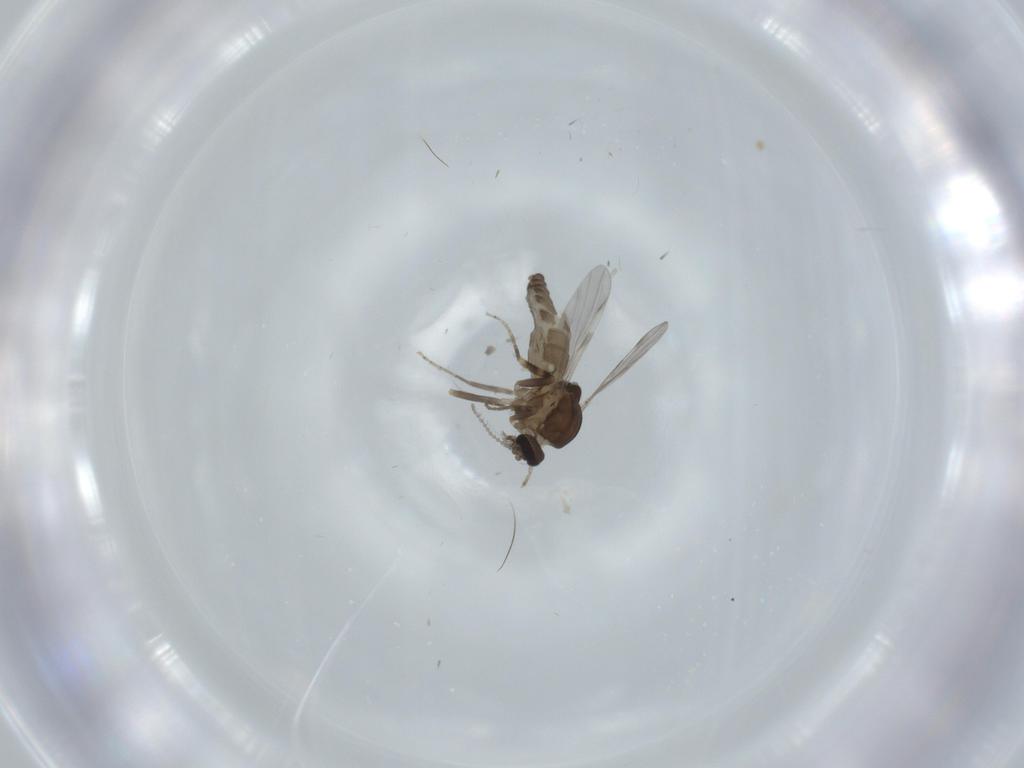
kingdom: Animalia
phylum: Arthropoda
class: Insecta
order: Diptera
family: Ceratopogonidae
